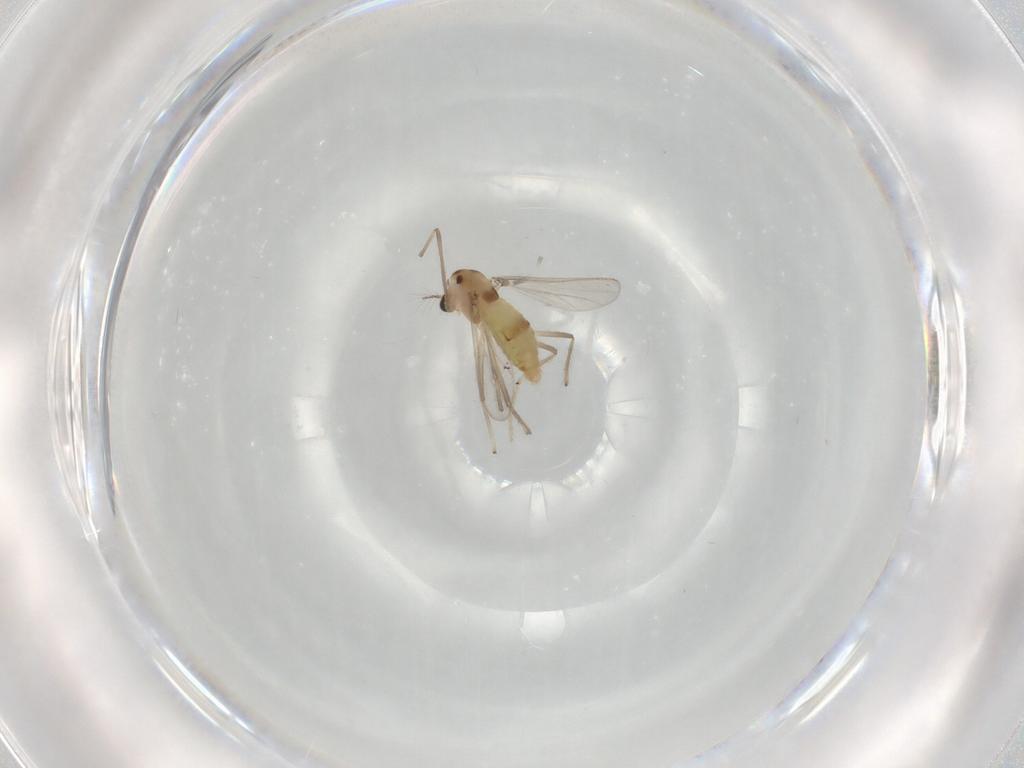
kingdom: Animalia
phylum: Arthropoda
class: Insecta
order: Diptera
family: Chironomidae
